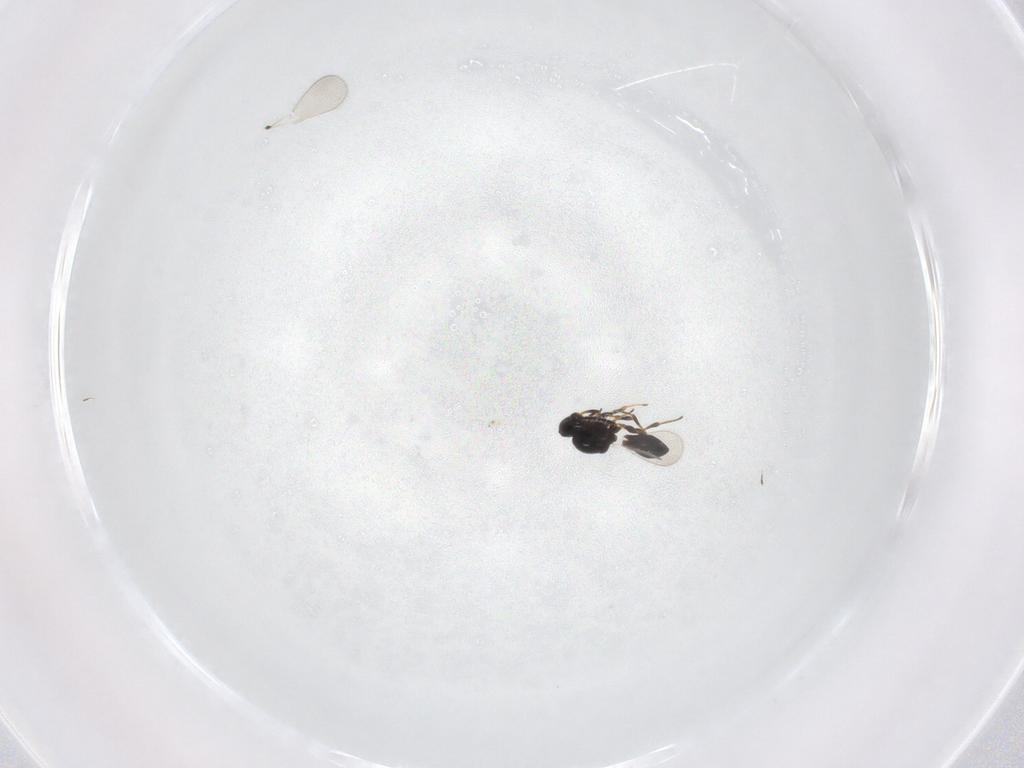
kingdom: Animalia
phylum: Arthropoda
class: Insecta
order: Hymenoptera
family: Platygastridae
